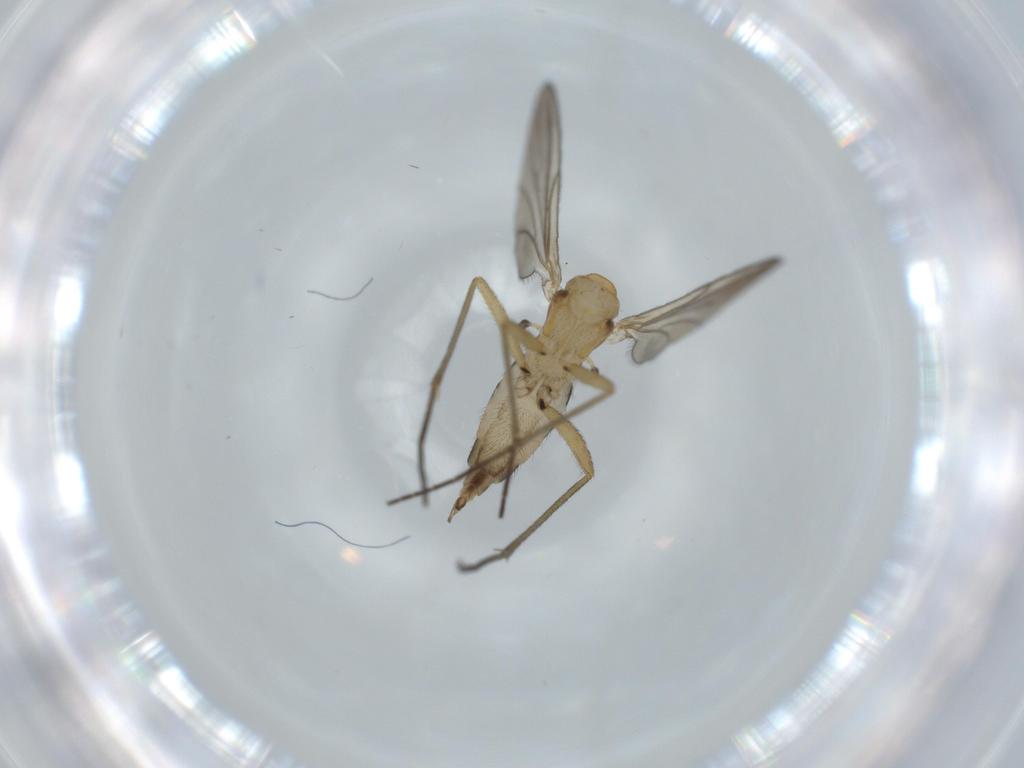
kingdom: Animalia
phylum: Arthropoda
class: Insecta
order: Diptera
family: Sciaridae
